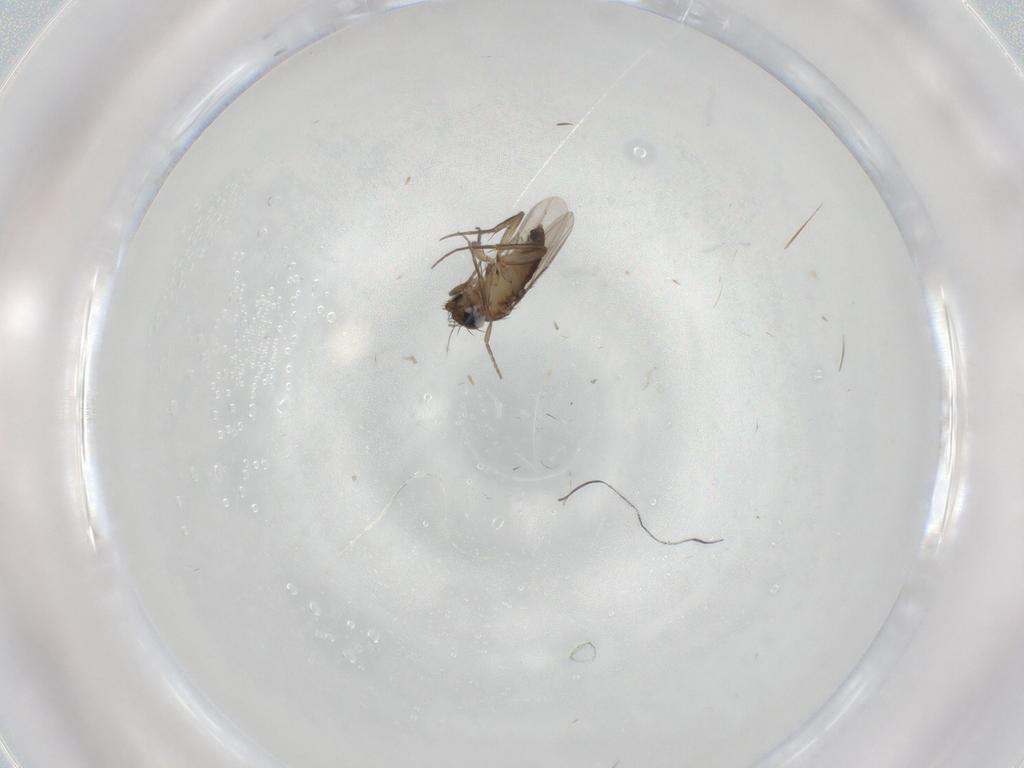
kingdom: Animalia
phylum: Arthropoda
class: Insecta
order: Diptera
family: Phoridae
